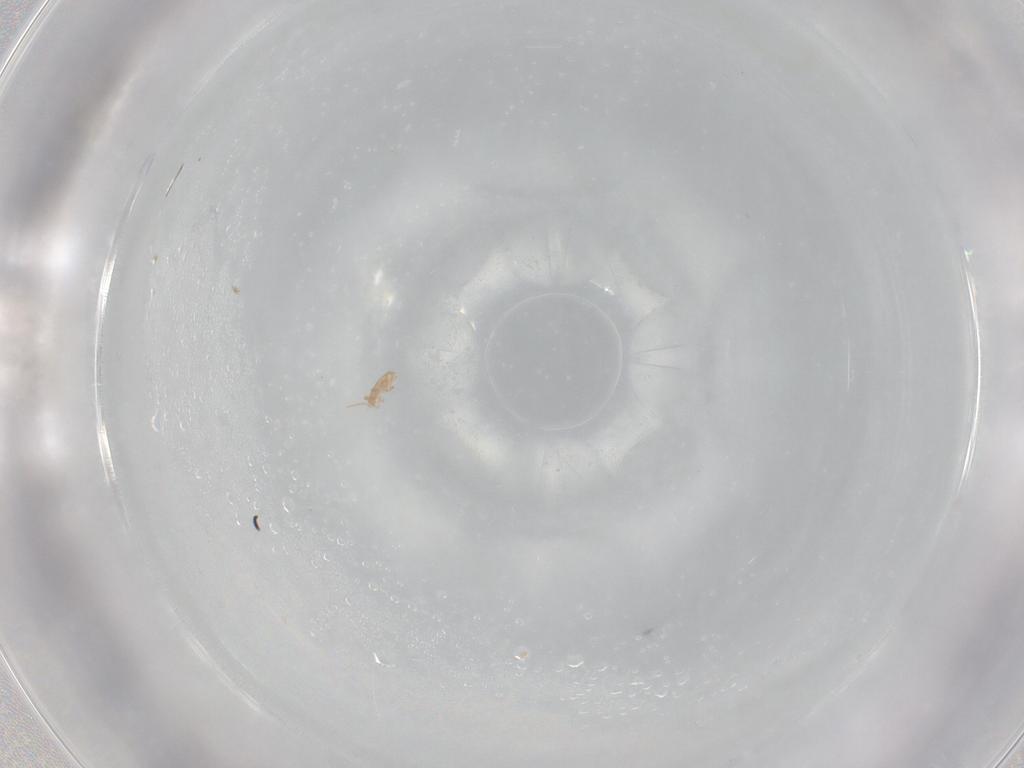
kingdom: Animalia
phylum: Arthropoda
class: Arachnida
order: Mesostigmata
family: Phytoseiidae
